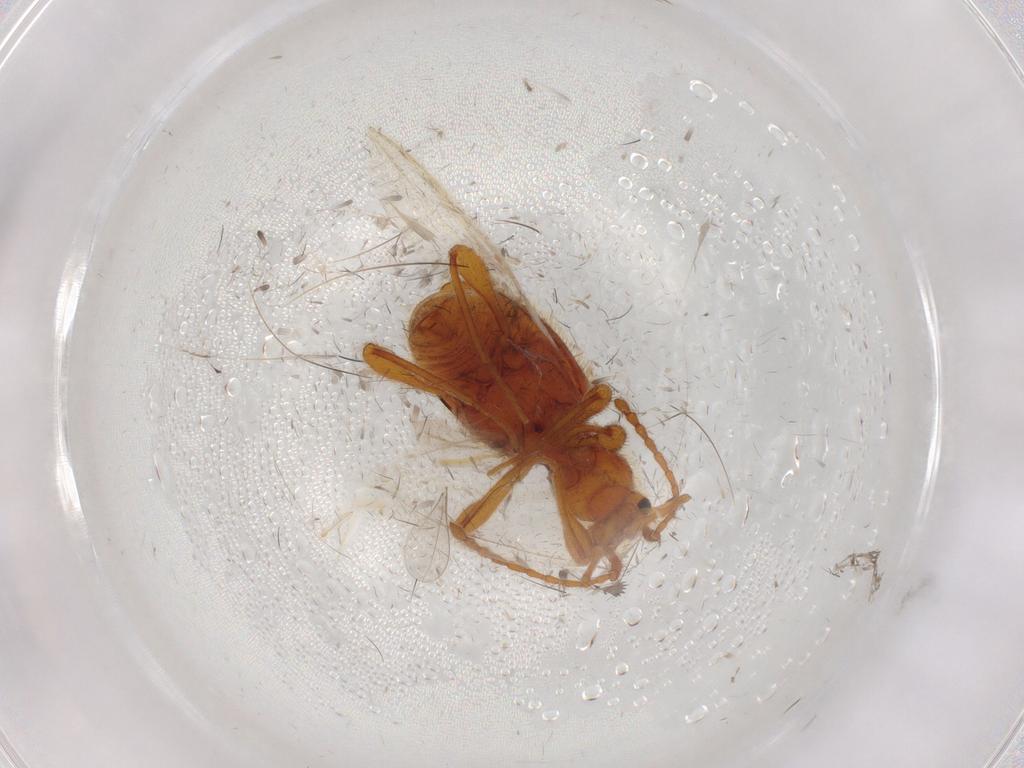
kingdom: Animalia
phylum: Arthropoda
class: Insecta
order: Coleoptera
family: Staphylinidae
